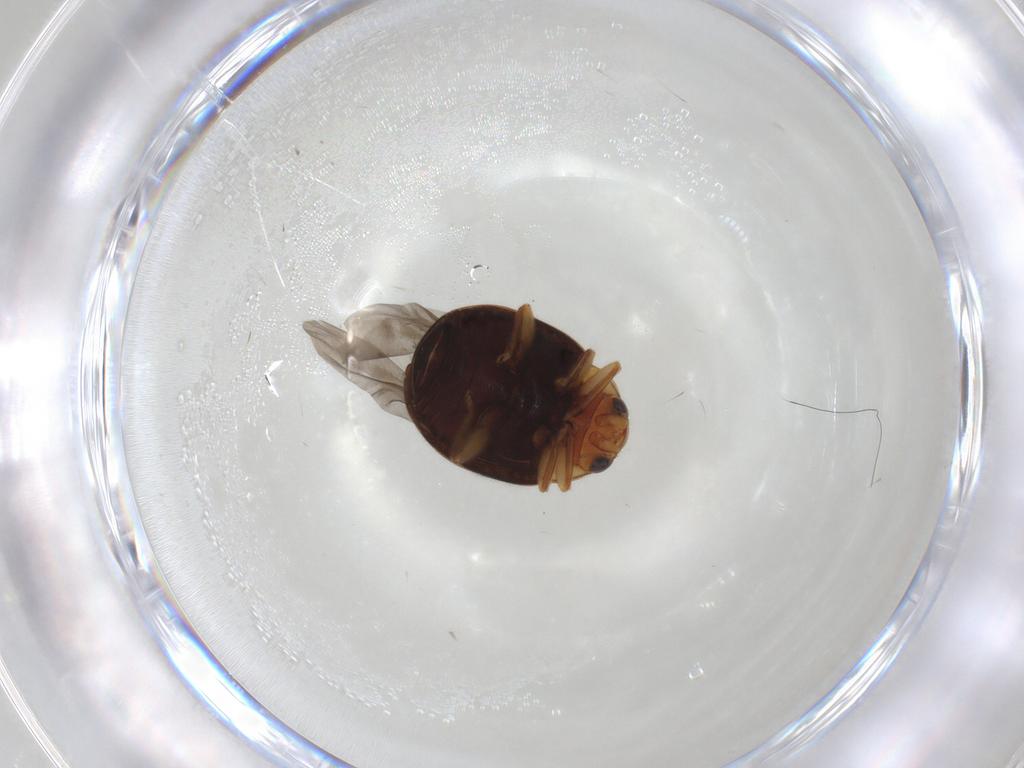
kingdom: Animalia
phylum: Arthropoda
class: Insecta
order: Coleoptera
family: Coccinellidae
